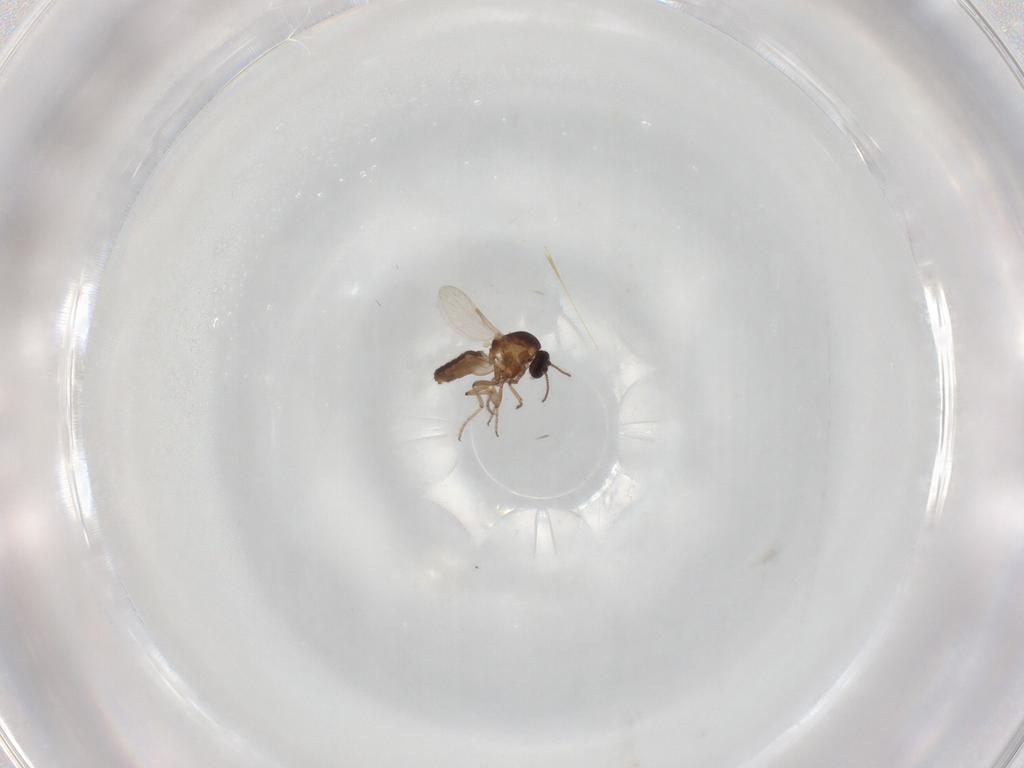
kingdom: Animalia
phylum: Arthropoda
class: Insecta
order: Diptera
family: Ceratopogonidae
